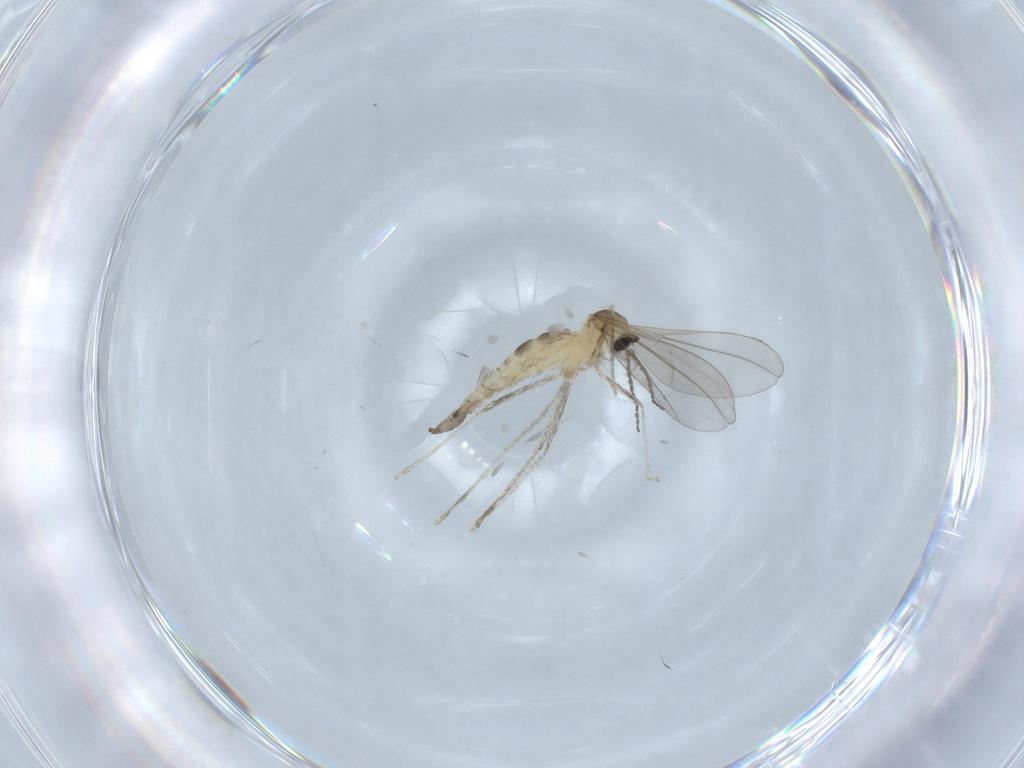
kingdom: Animalia
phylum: Arthropoda
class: Insecta
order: Diptera
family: Cecidomyiidae
